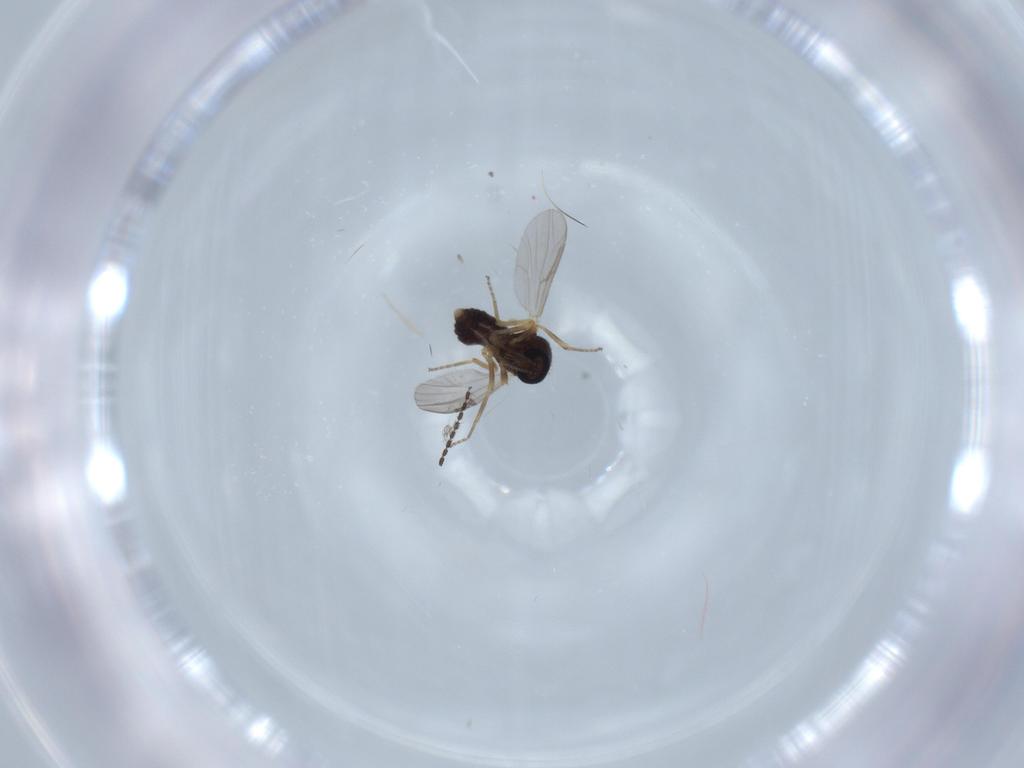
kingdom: Animalia
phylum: Arthropoda
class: Insecta
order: Diptera
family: Ceratopogonidae
